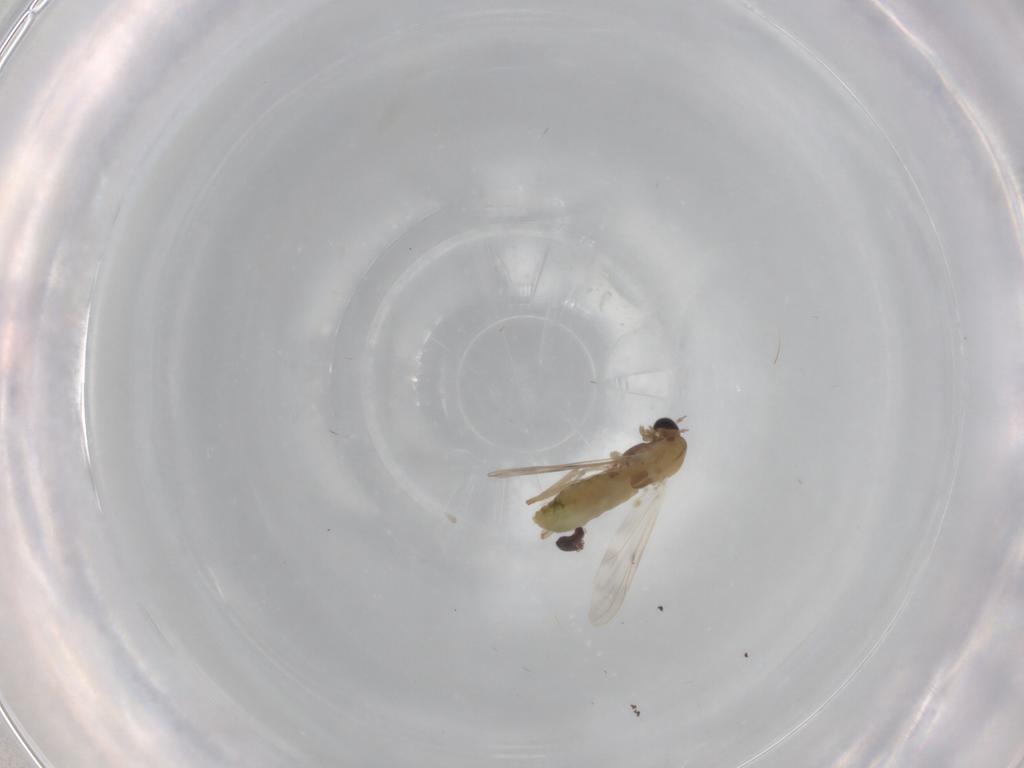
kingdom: Animalia
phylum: Arthropoda
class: Insecta
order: Diptera
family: Chironomidae
